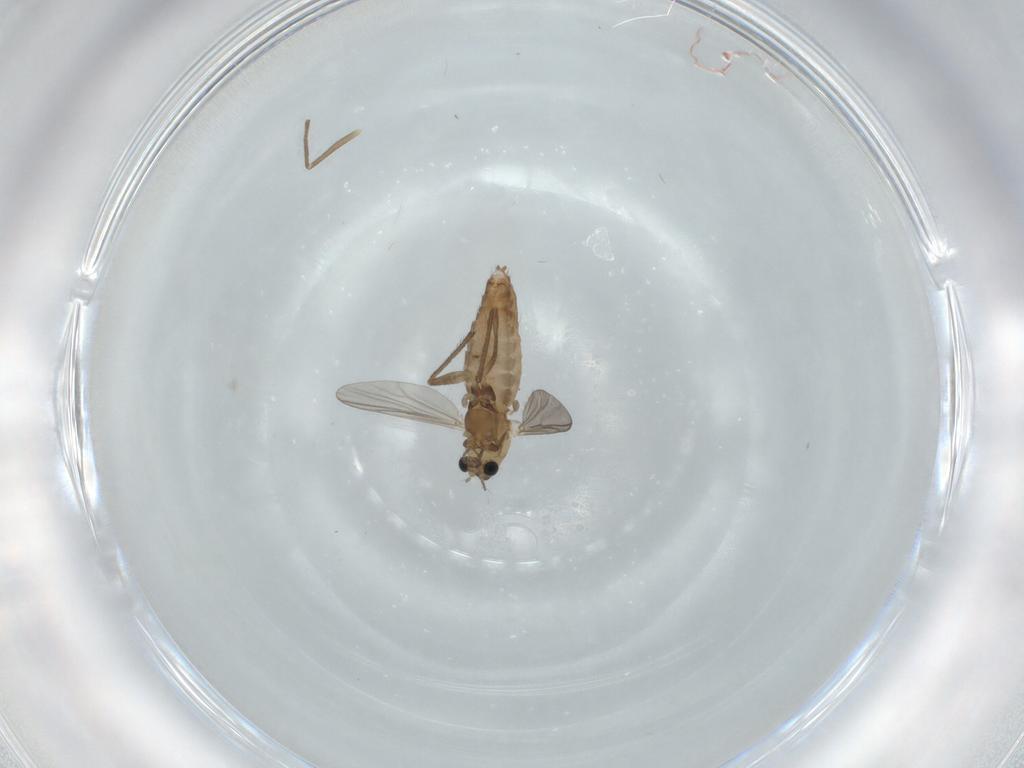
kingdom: Animalia
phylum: Arthropoda
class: Insecta
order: Diptera
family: Chironomidae
